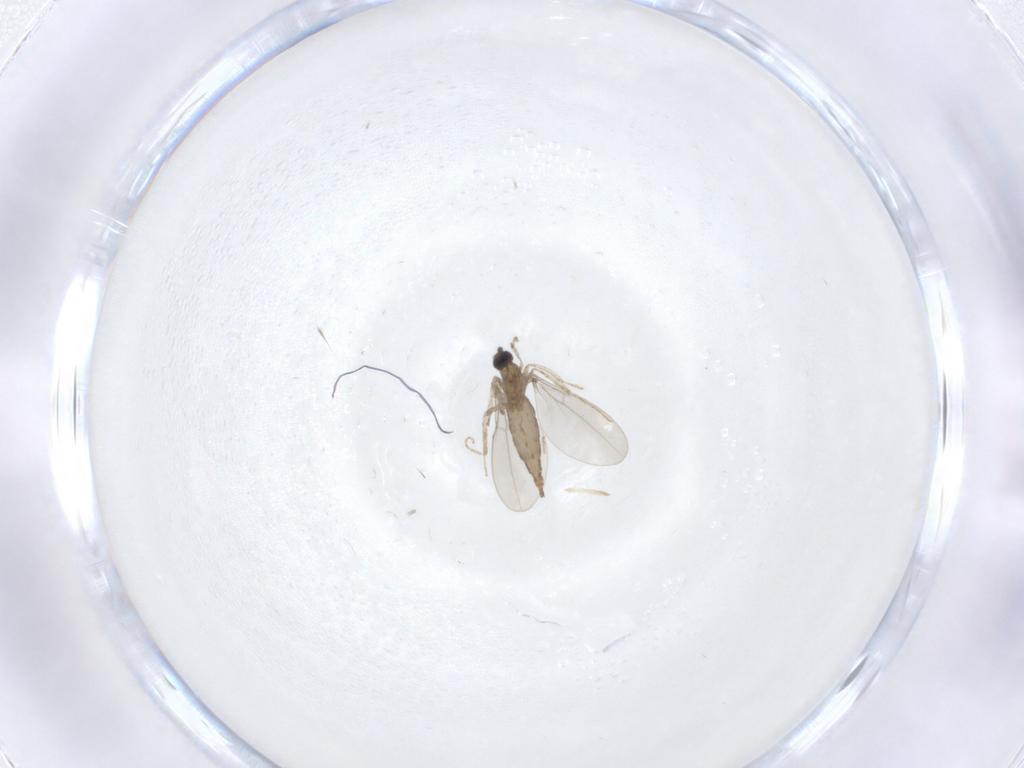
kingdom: Animalia
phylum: Arthropoda
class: Insecta
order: Diptera
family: Cecidomyiidae
